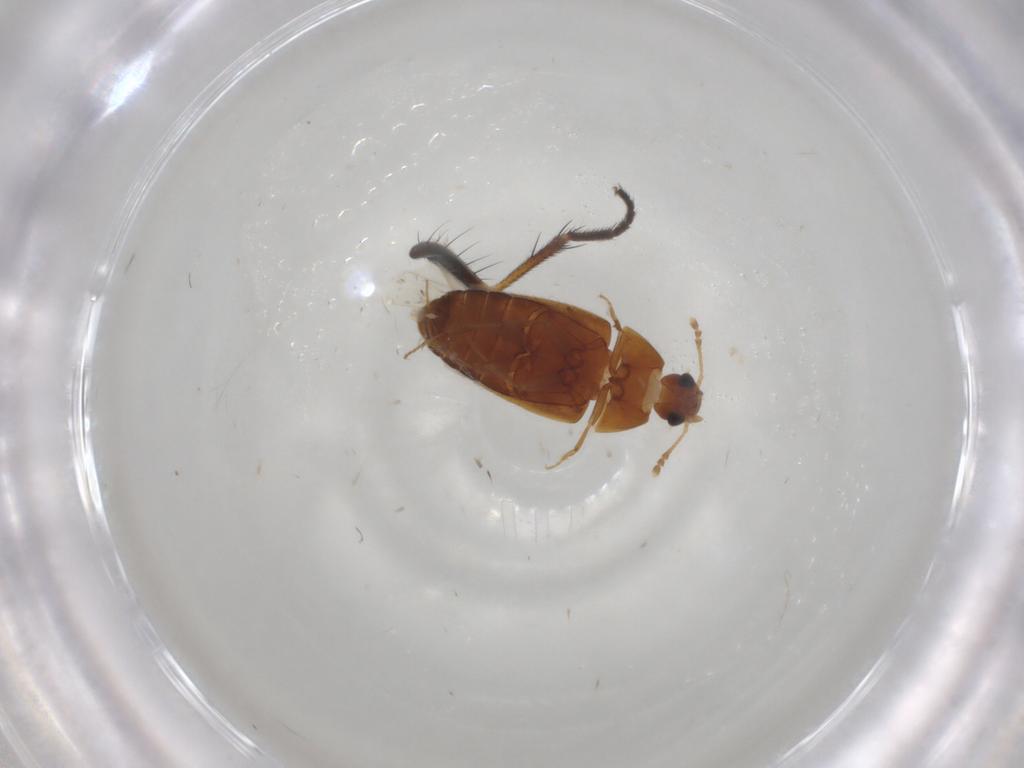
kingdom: Animalia
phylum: Arthropoda
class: Insecta
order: Coleoptera
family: Mycetophagidae
